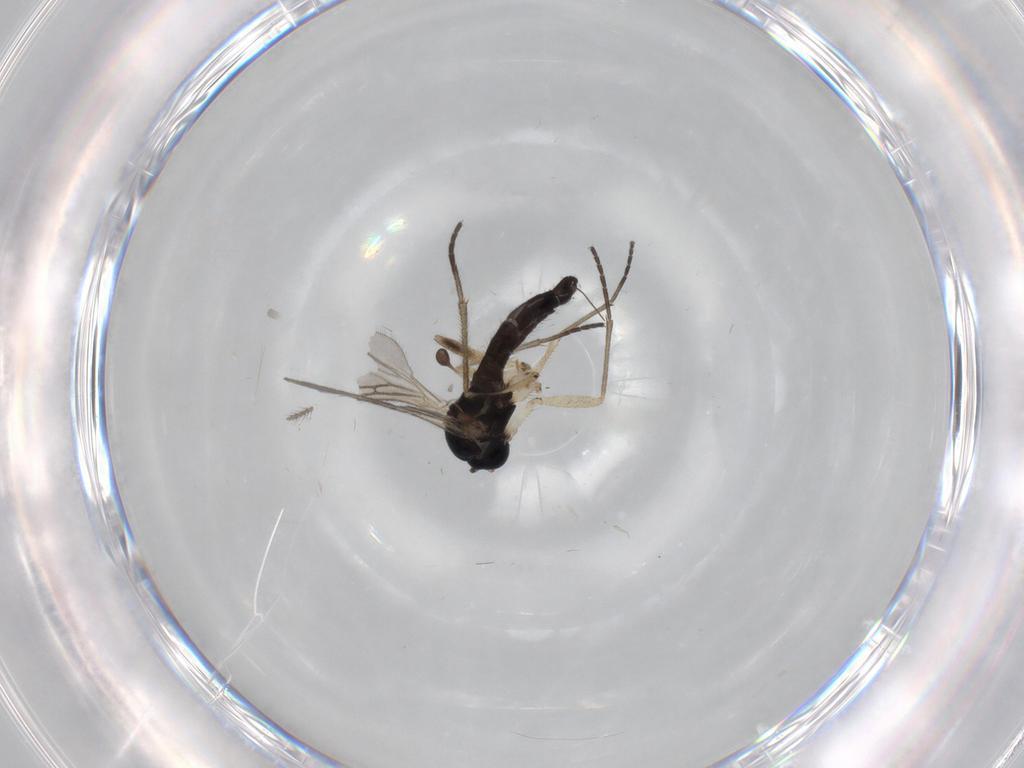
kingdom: Animalia
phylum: Arthropoda
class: Insecta
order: Diptera
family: Sciaridae
